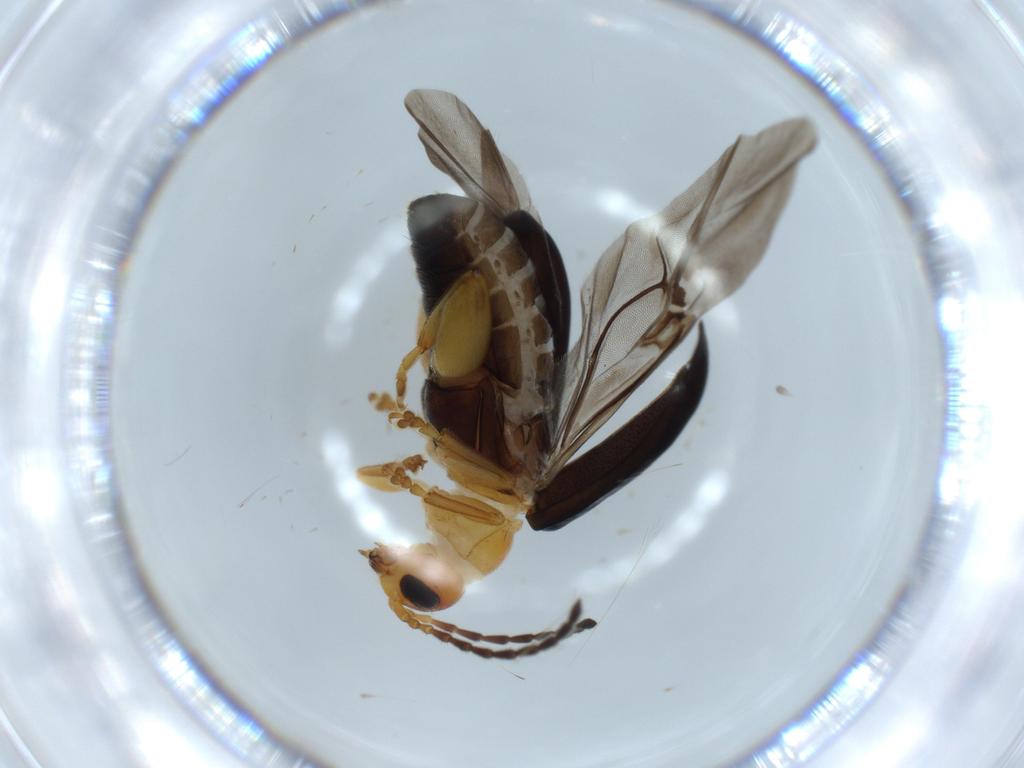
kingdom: Animalia
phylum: Arthropoda
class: Insecta
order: Coleoptera
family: Chrysomelidae
